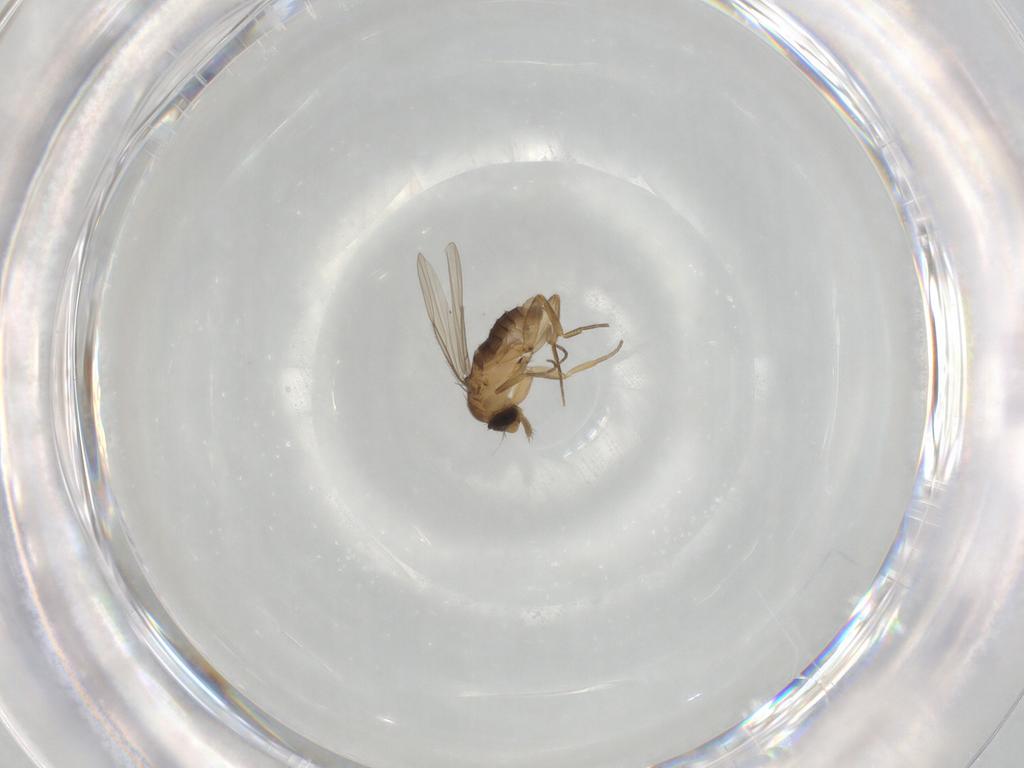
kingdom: Animalia
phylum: Arthropoda
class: Insecta
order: Diptera
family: Phoridae
